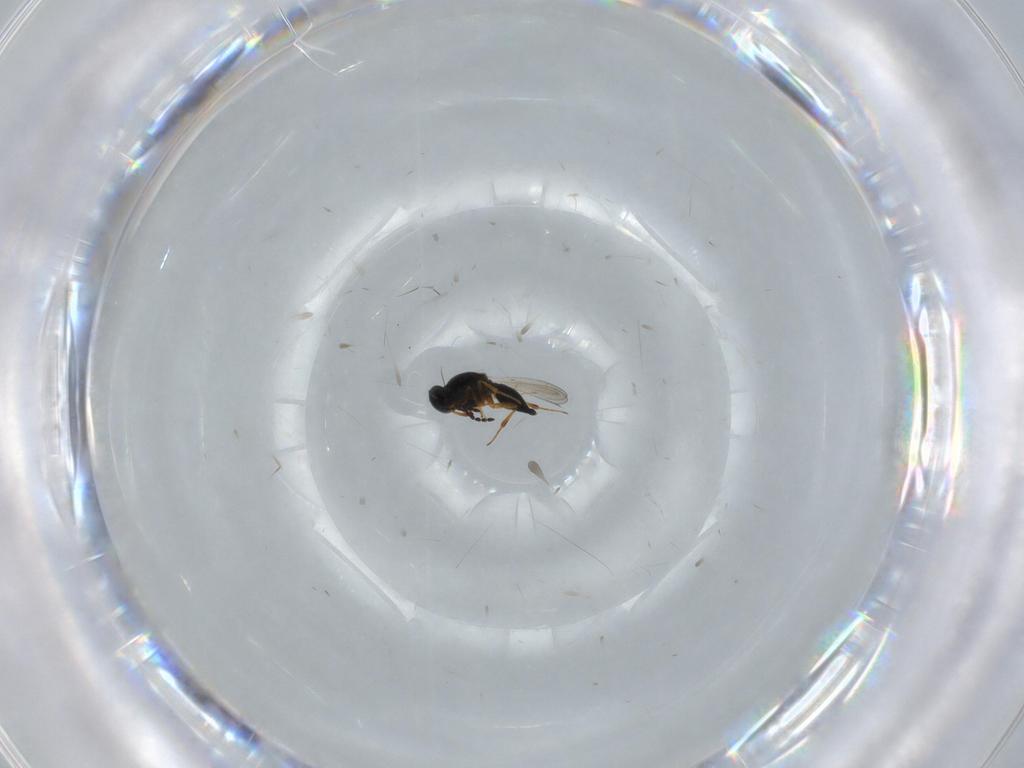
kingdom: Animalia
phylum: Arthropoda
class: Insecta
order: Hymenoptera
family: Platygastridae
